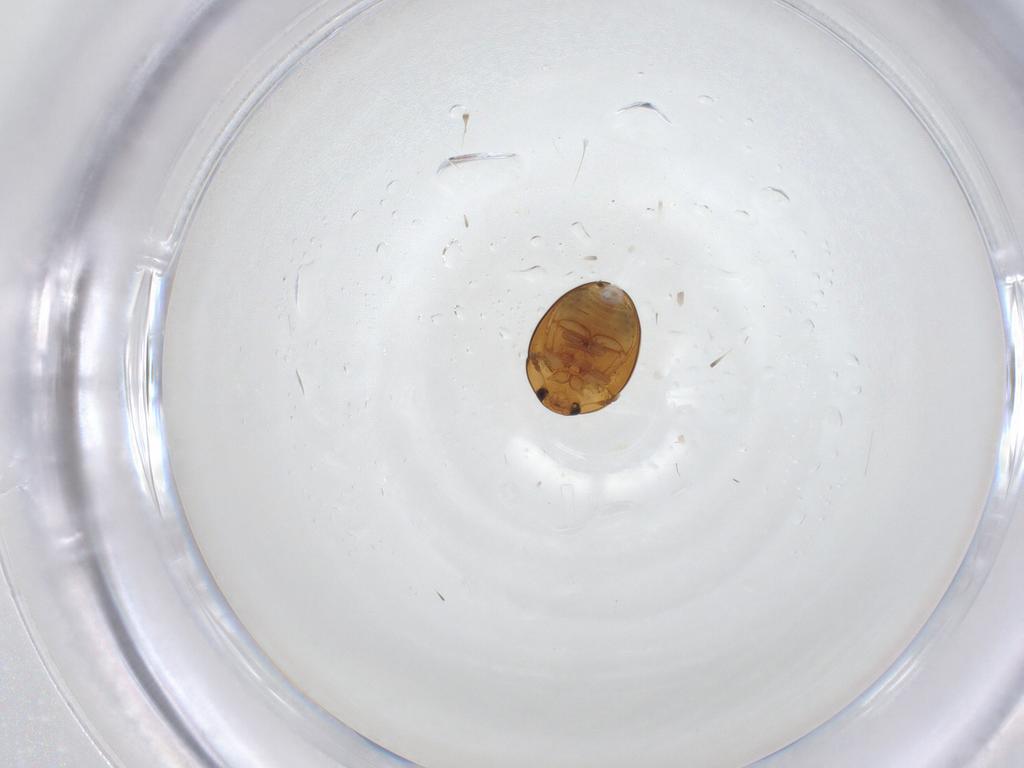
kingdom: Animalia
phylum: Arthropoda
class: Insecta
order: Coleoptera
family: Phalacridae
